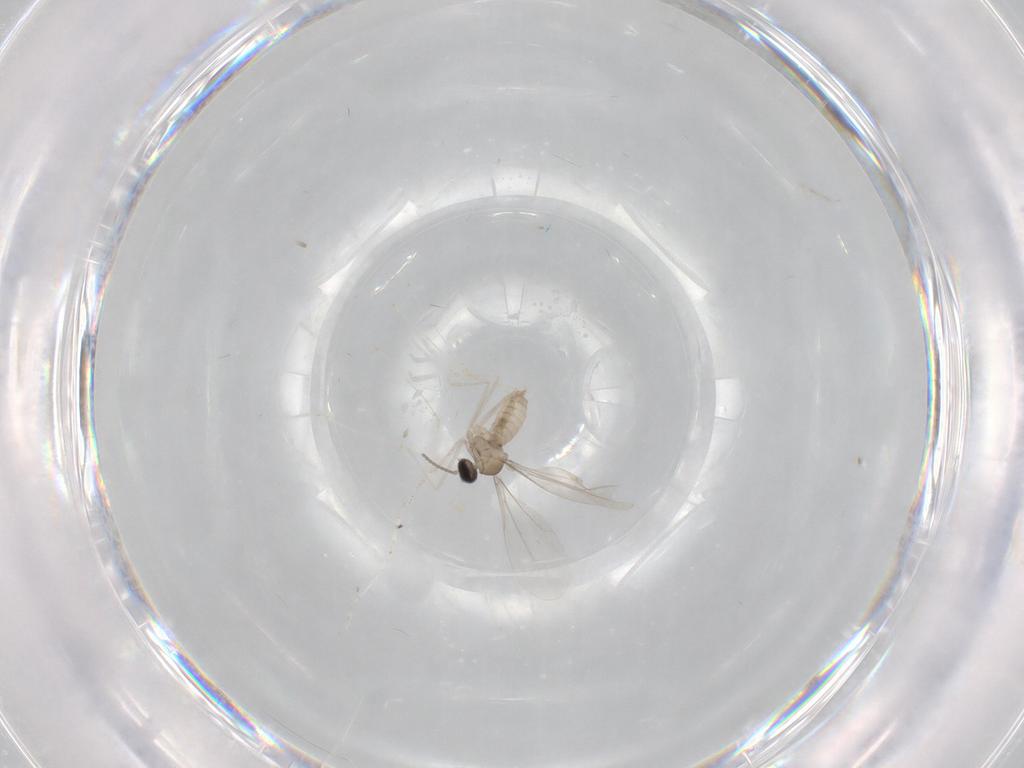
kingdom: Animalia
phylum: Arthropoda
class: Insecta
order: Diptera
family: Cecidomyiidae
